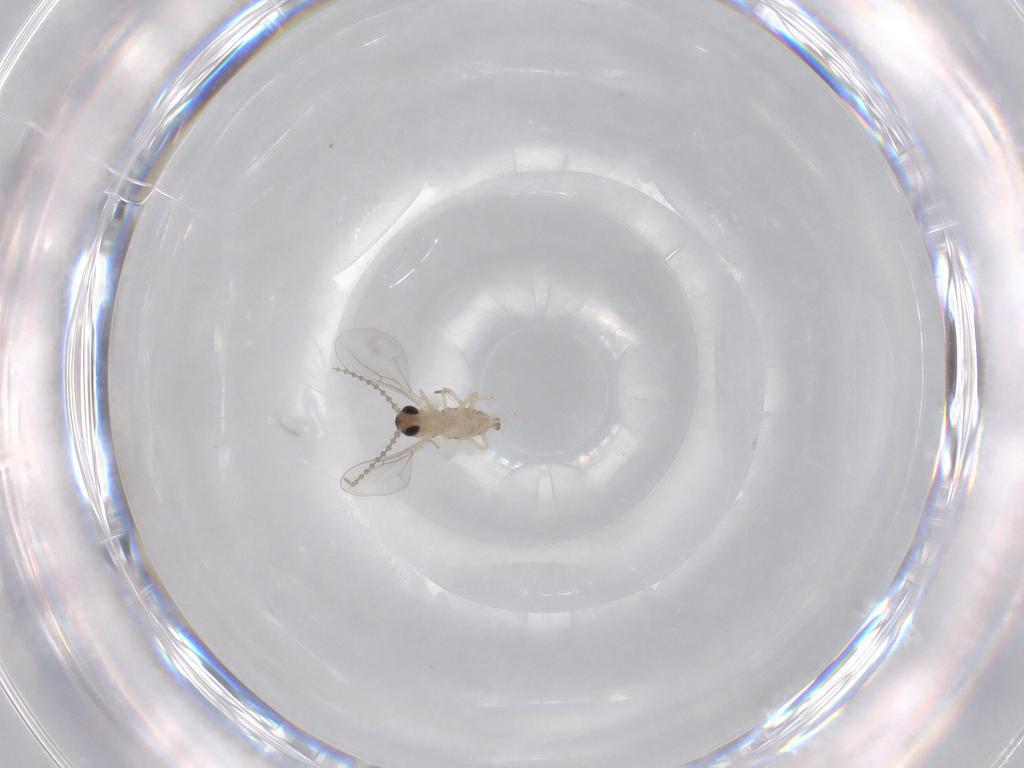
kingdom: Animalia
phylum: Arthropoda
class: Insecta
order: Diptera
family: Cecidomyiidae
